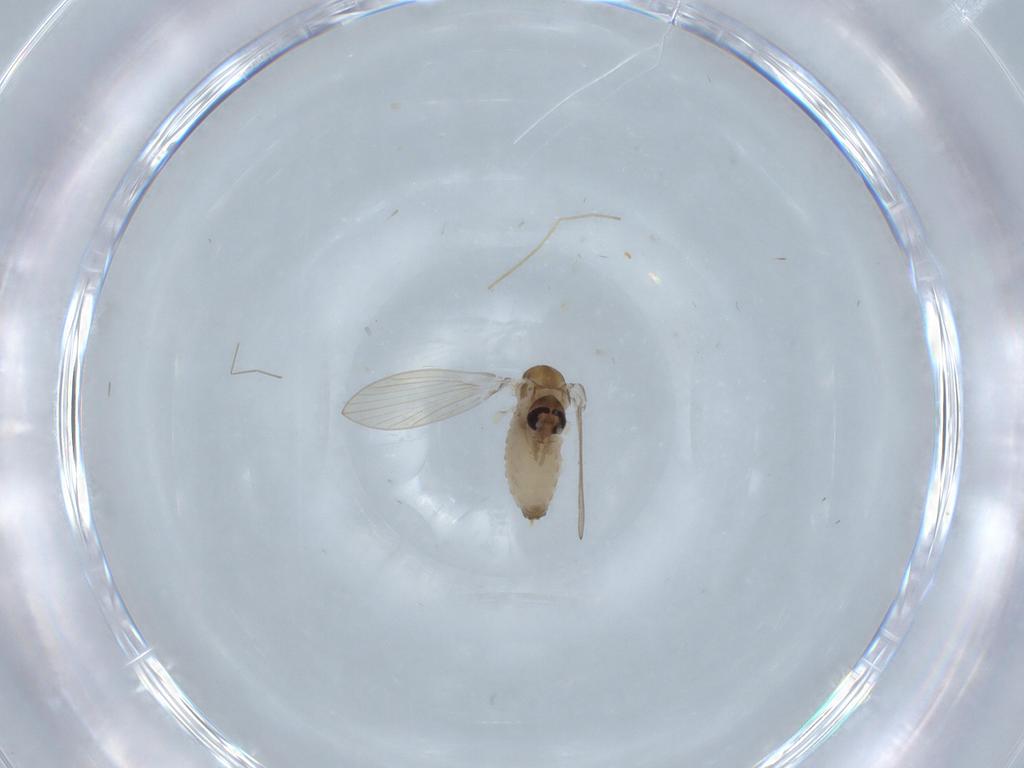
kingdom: Animalia
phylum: Arthropoda
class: Insecta
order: Diptera
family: Psychodidae
